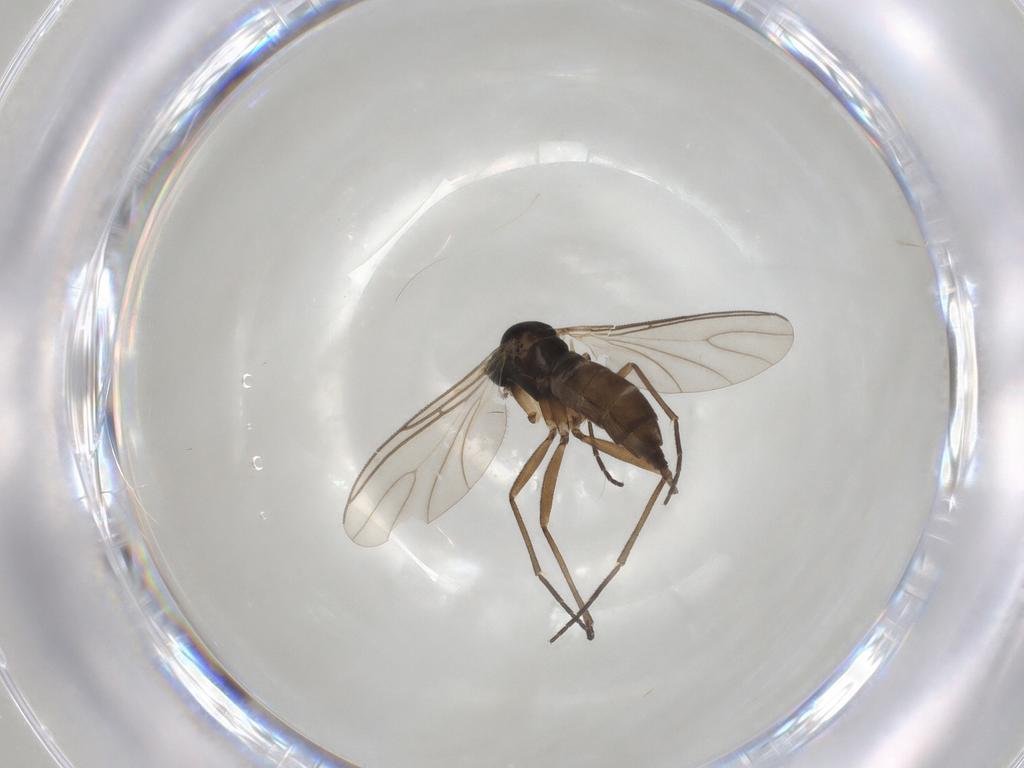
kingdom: Animalia
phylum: Arthropoda
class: Insecta
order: Diptera
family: Sciaridae
